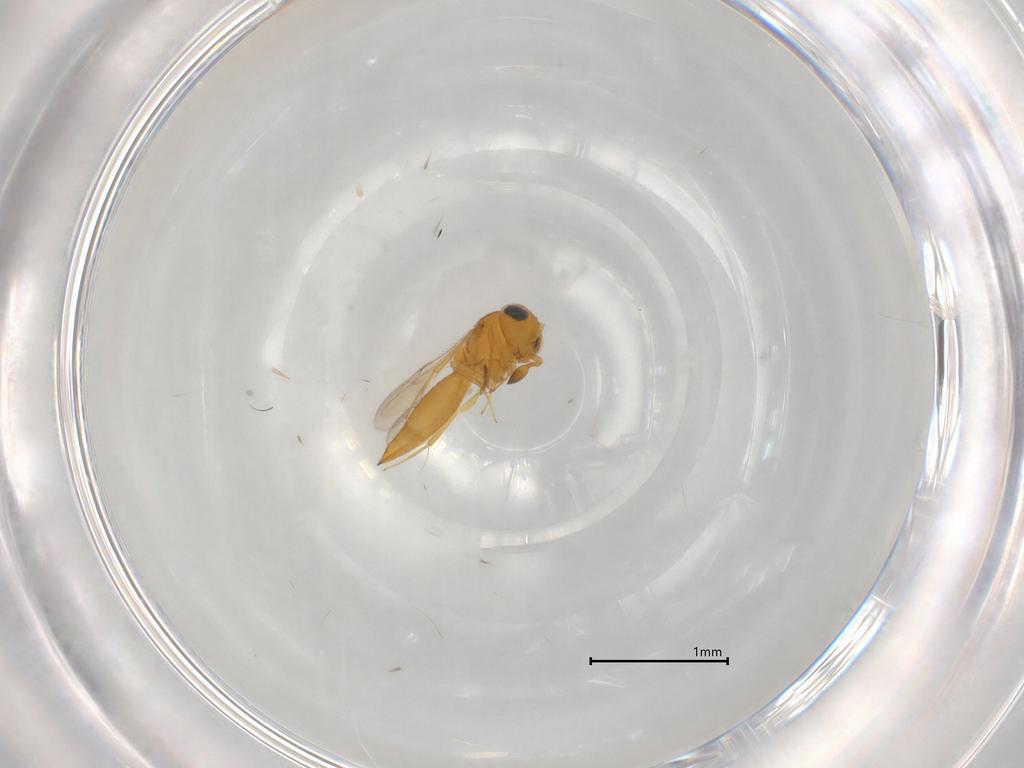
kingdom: Animalia
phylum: Arthropoda
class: Insecta
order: Hymenoptera
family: Scelionidae
